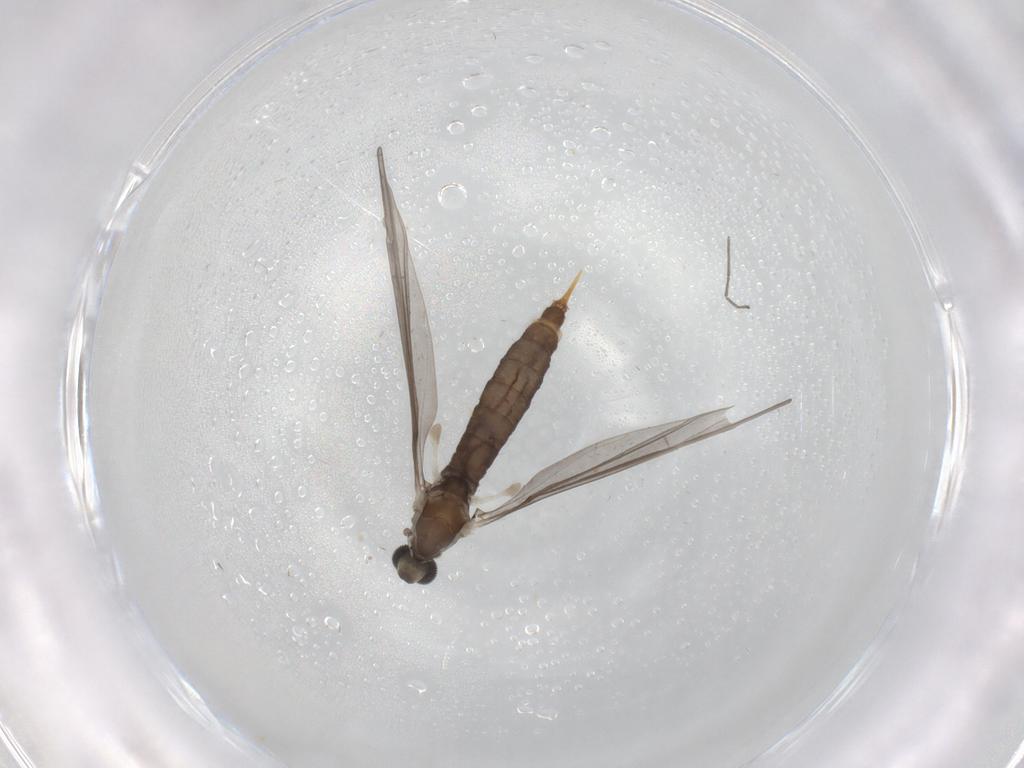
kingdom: Animalia
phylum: Arthropoda
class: Insecta
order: Diptera
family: Limoniidae
